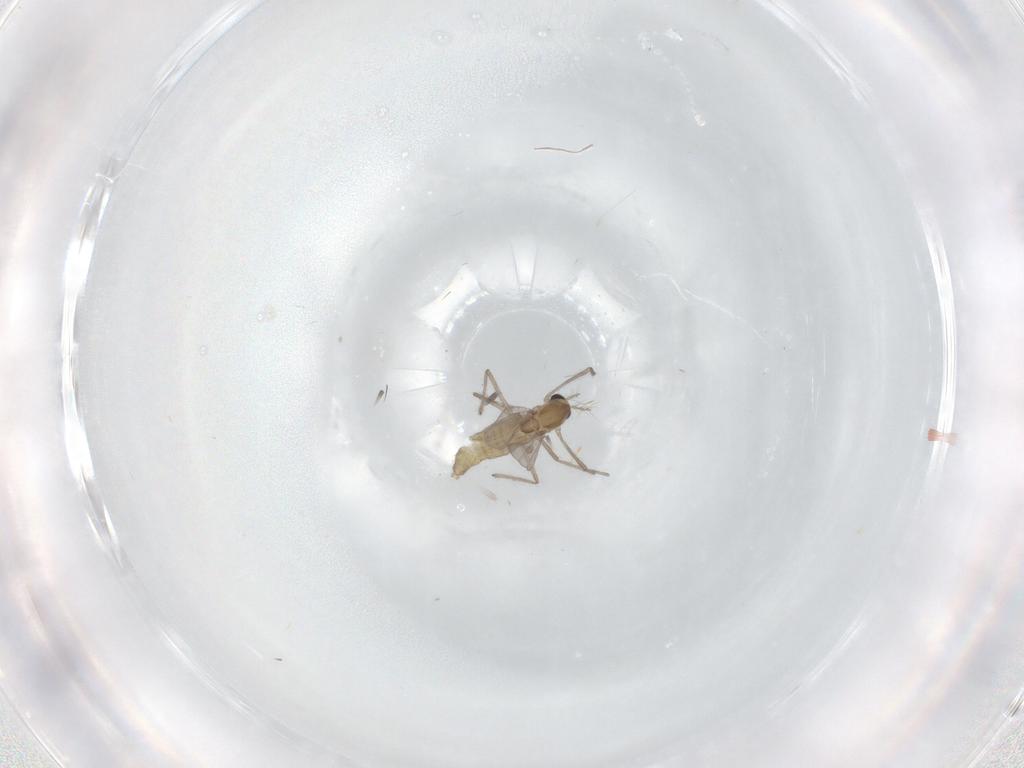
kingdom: Animalia
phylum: Arthropoda
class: Insecta
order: Diptera
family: Chironomidae
